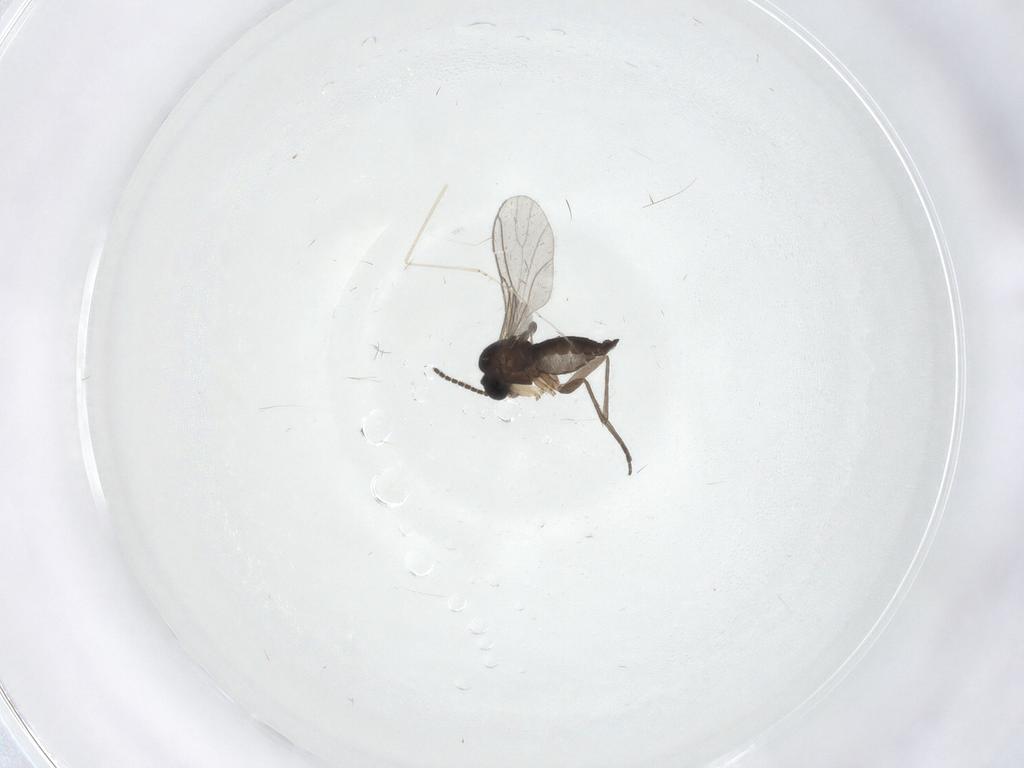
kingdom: Animalia
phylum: Arthropoda
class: Insecta
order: Diptera
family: Sciaridae
